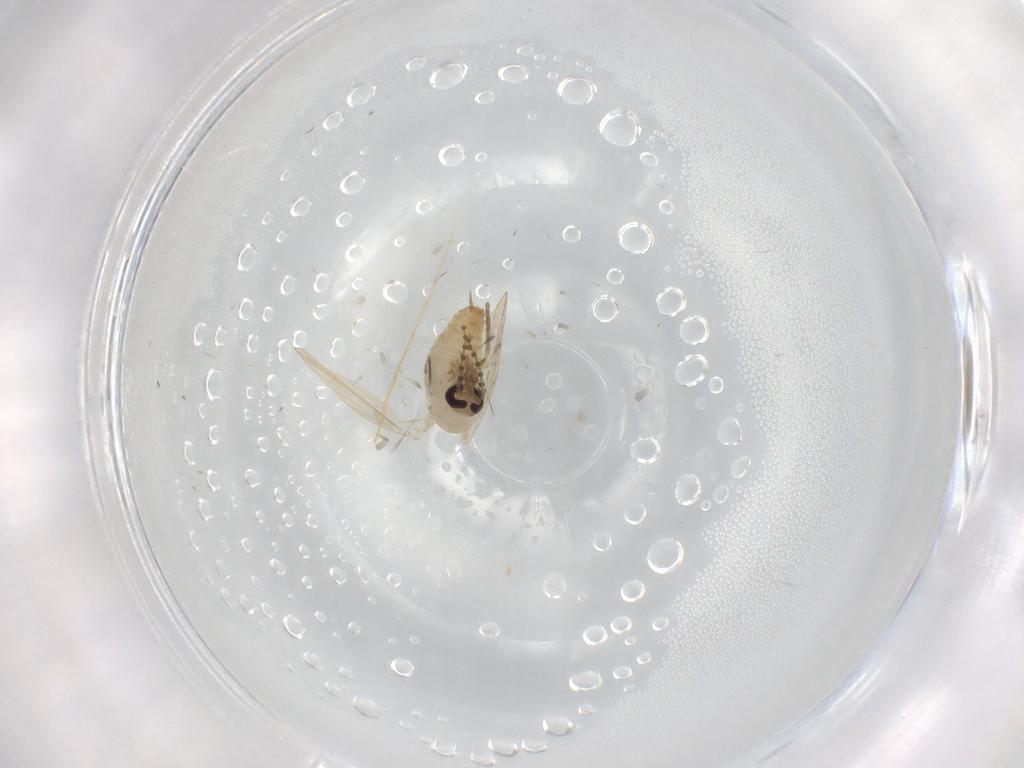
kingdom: Animalia
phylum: Arthropoda
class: Insecta
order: Diptera
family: Psychodidae
